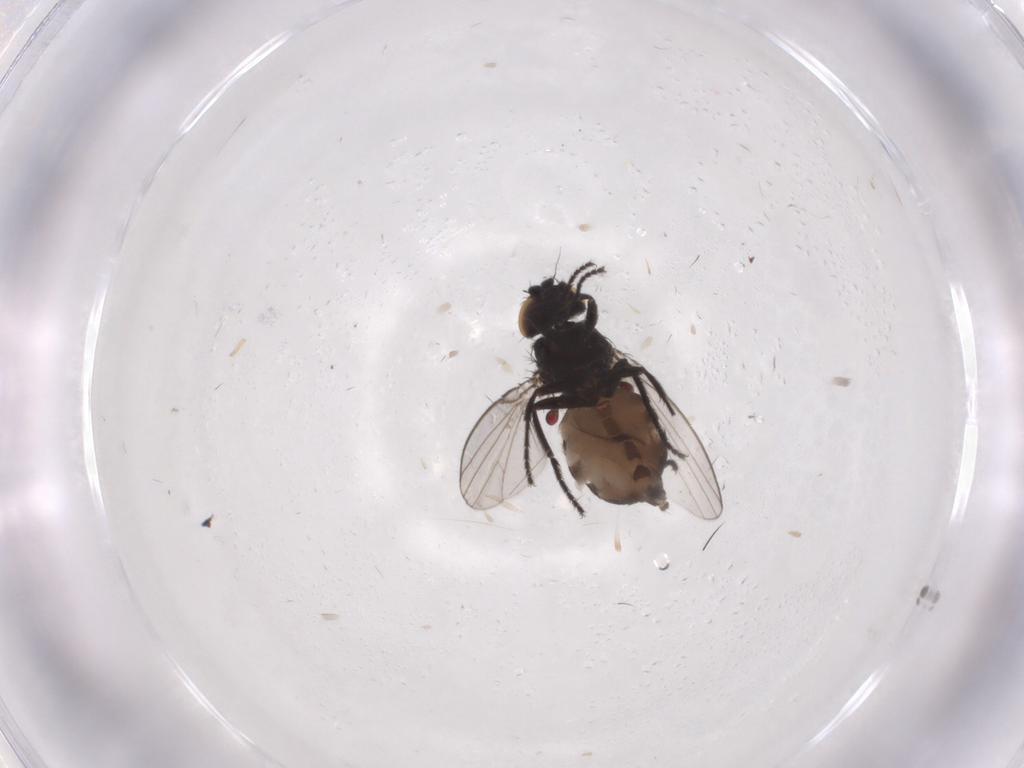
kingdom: Animalia
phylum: Arthropoda
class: Insecta
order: Diptera
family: Milichiidae
